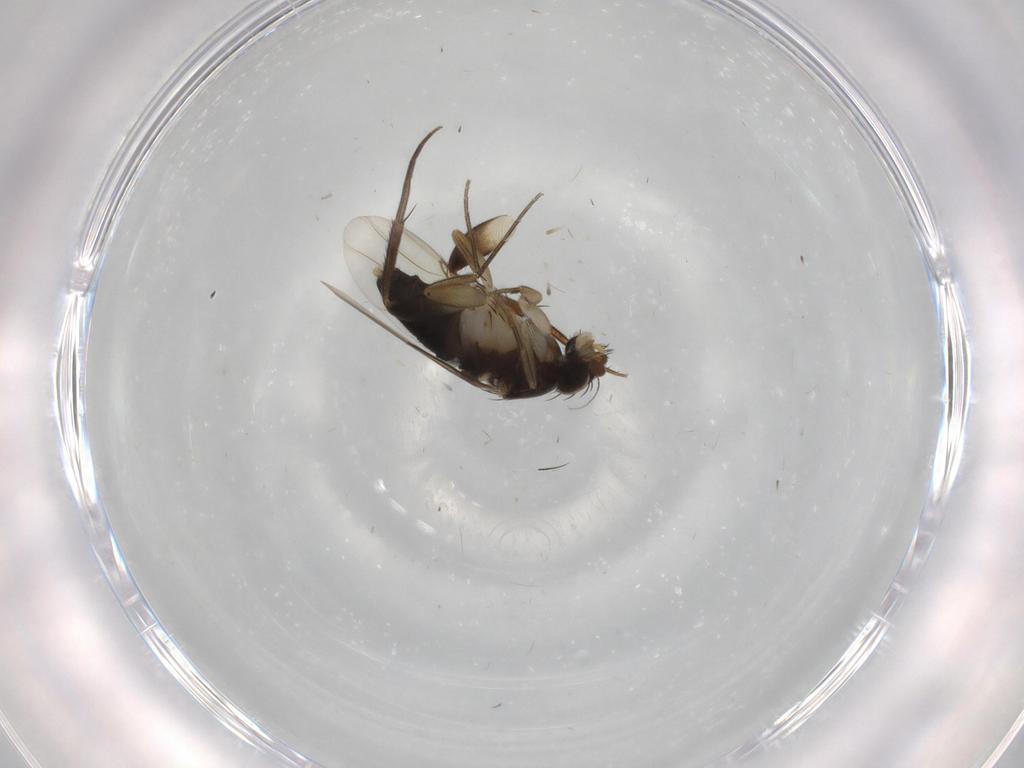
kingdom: Animalia
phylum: Arthropoda
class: Insecta
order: Diptera
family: Phoridae
